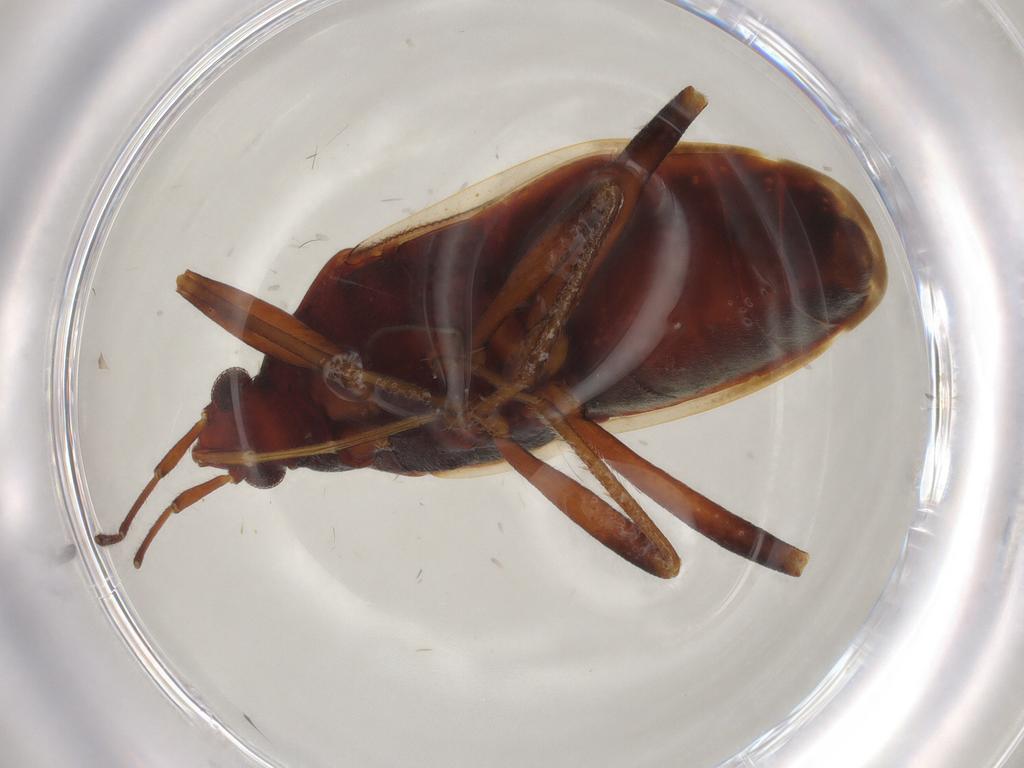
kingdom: Animalia
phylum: Arthropoda
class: Insecta
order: Hemiptera
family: Rhyparochromidae
